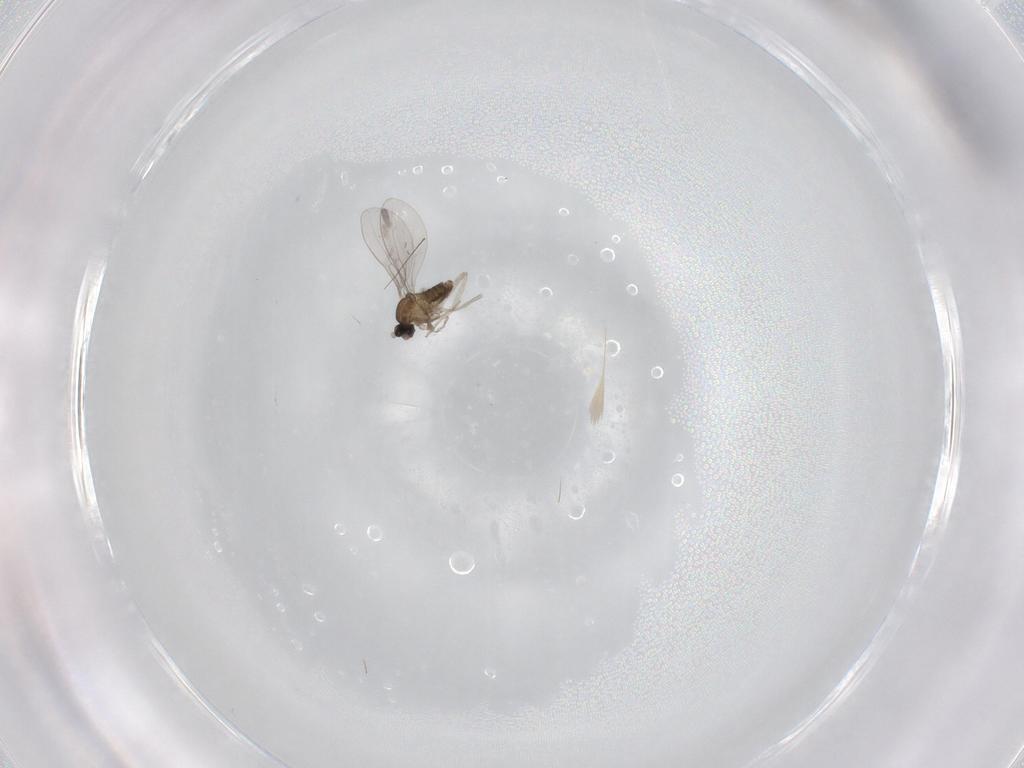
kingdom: Animalia
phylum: Arthropoda
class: Insecta
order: Diptera
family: Cecidomyiidae
